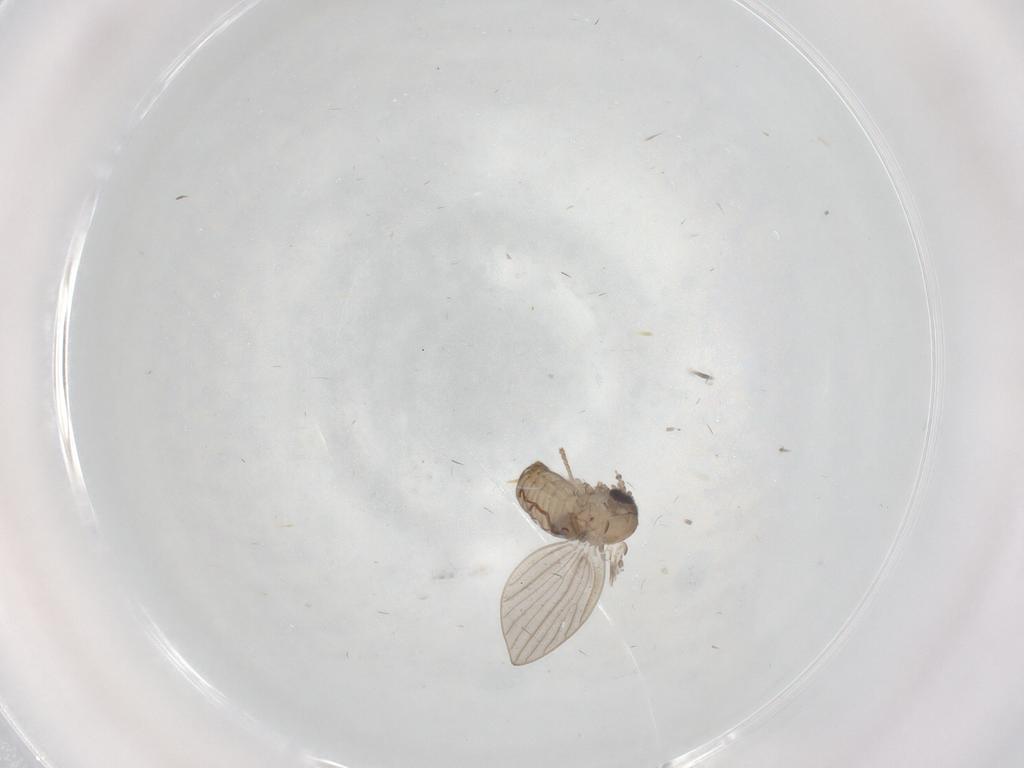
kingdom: Animalia
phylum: Arthropoda
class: Insecta
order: Diptera
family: Psychodidae
